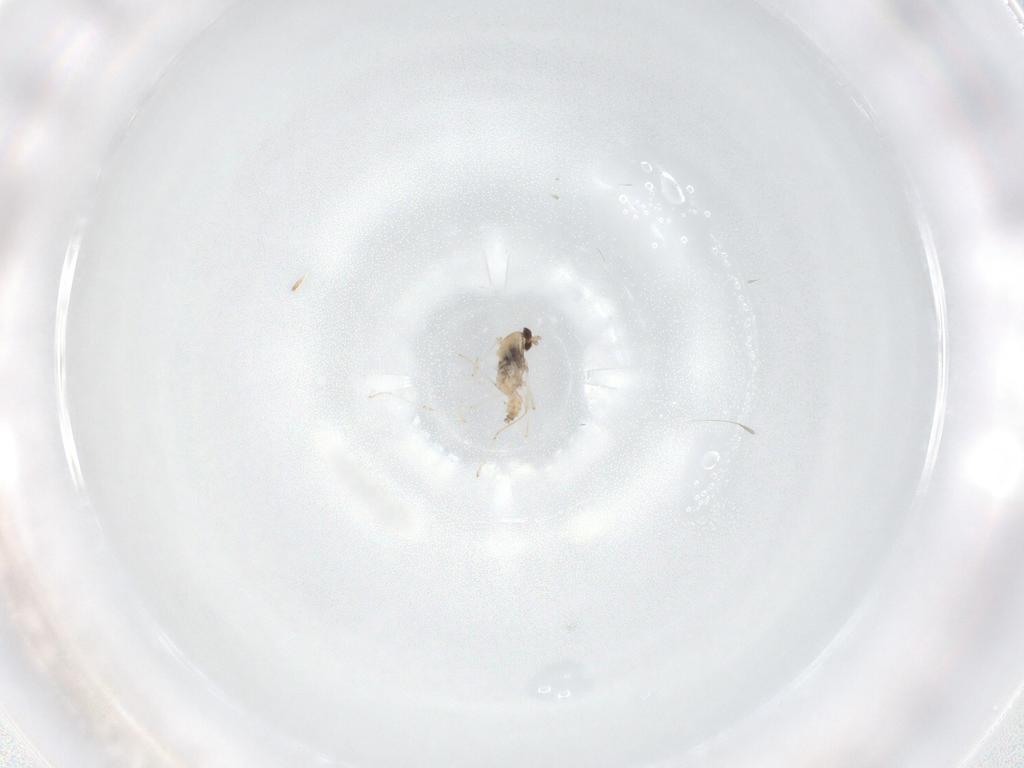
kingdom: Animalia
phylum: Arthropoda
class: Insecta
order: Diptera
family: Cecidomyiidae
